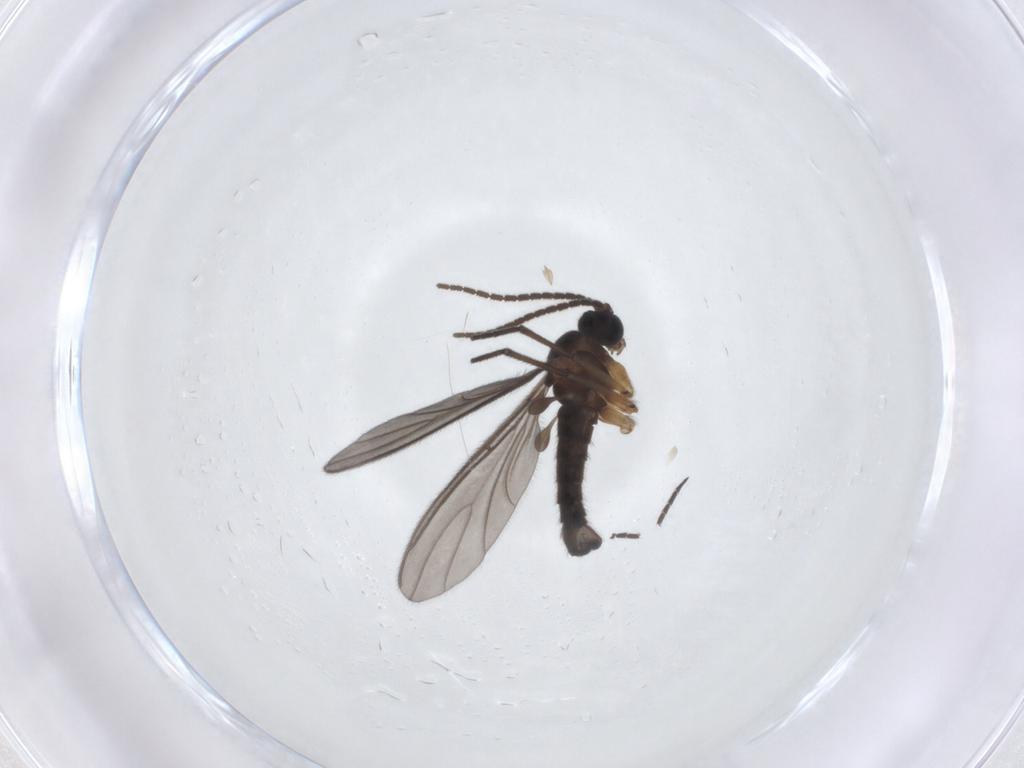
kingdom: Animalia
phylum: Arthropoda
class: Insecta
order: Diptera
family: Sciaridae
